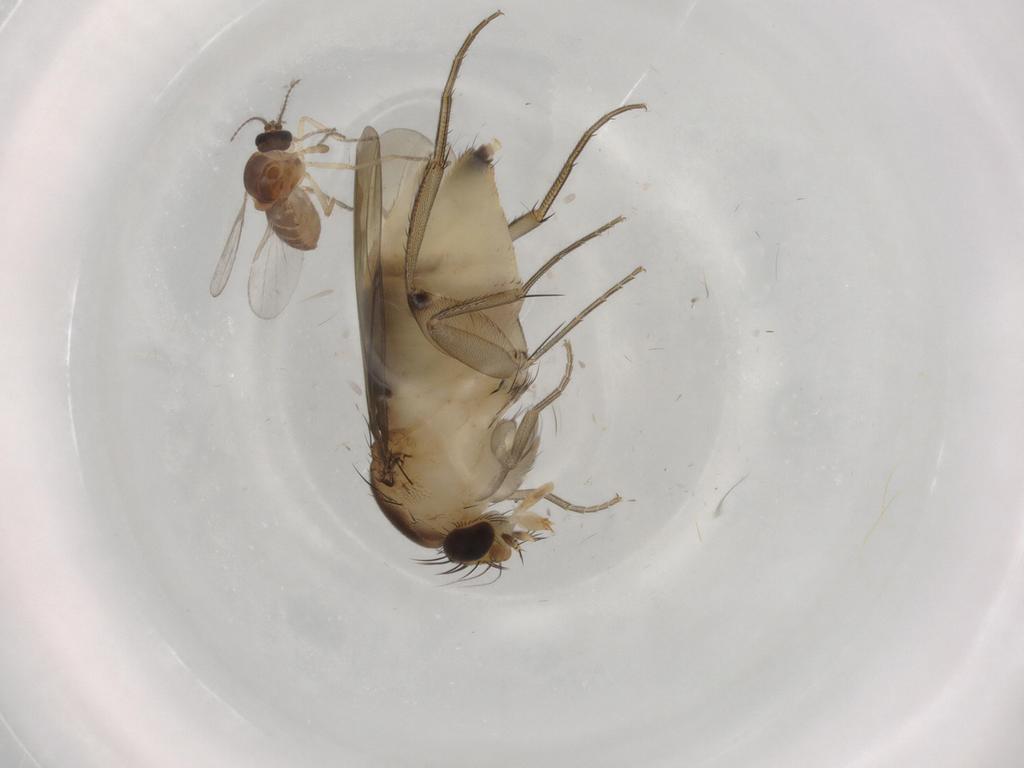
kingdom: Animalia
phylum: Arthropoda
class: Insecta
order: Diptera
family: Ceratopogonidae
